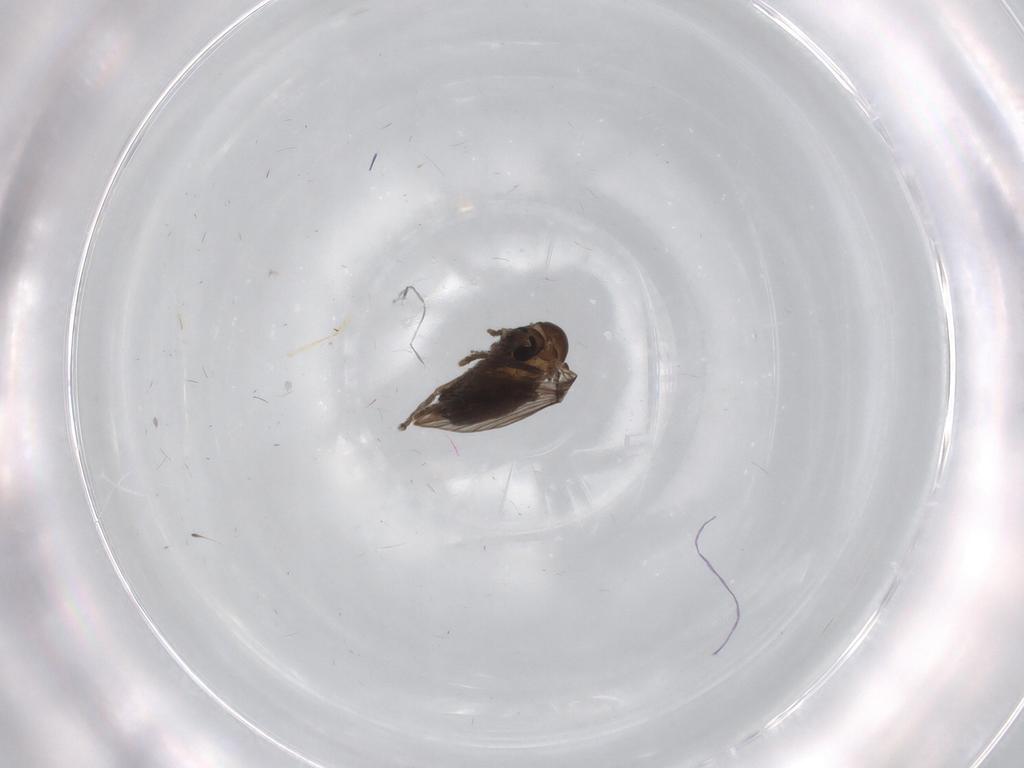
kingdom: Animalia
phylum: Arthropoda
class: Insecta
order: Diptera
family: Psychodidae
